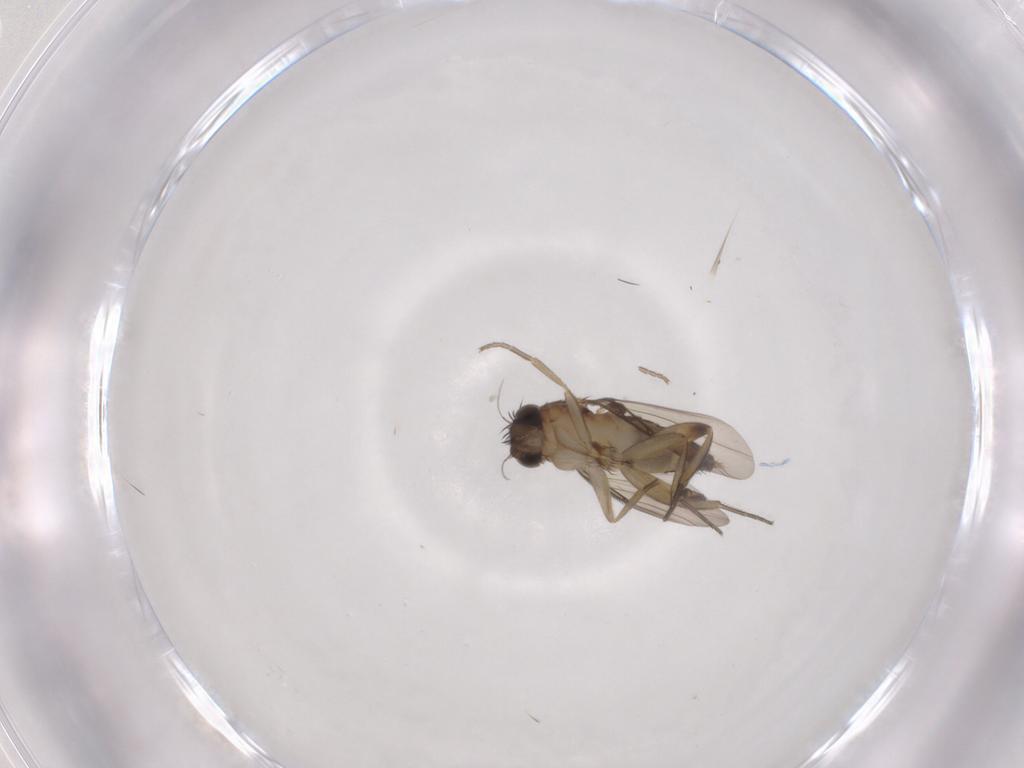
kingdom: Animalia
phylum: Arthropoda
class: Insecta
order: Diptera
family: Phoridae
